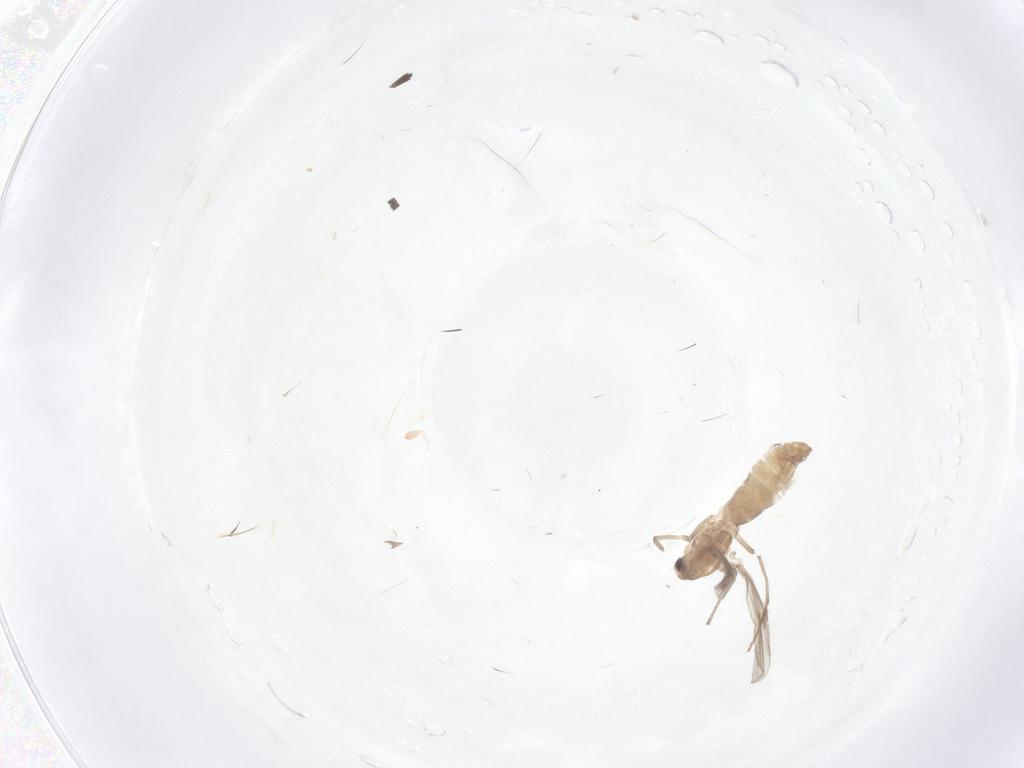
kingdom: Animalia
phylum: Arthropoda
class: Insecta
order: Diptera
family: Chironomidae
